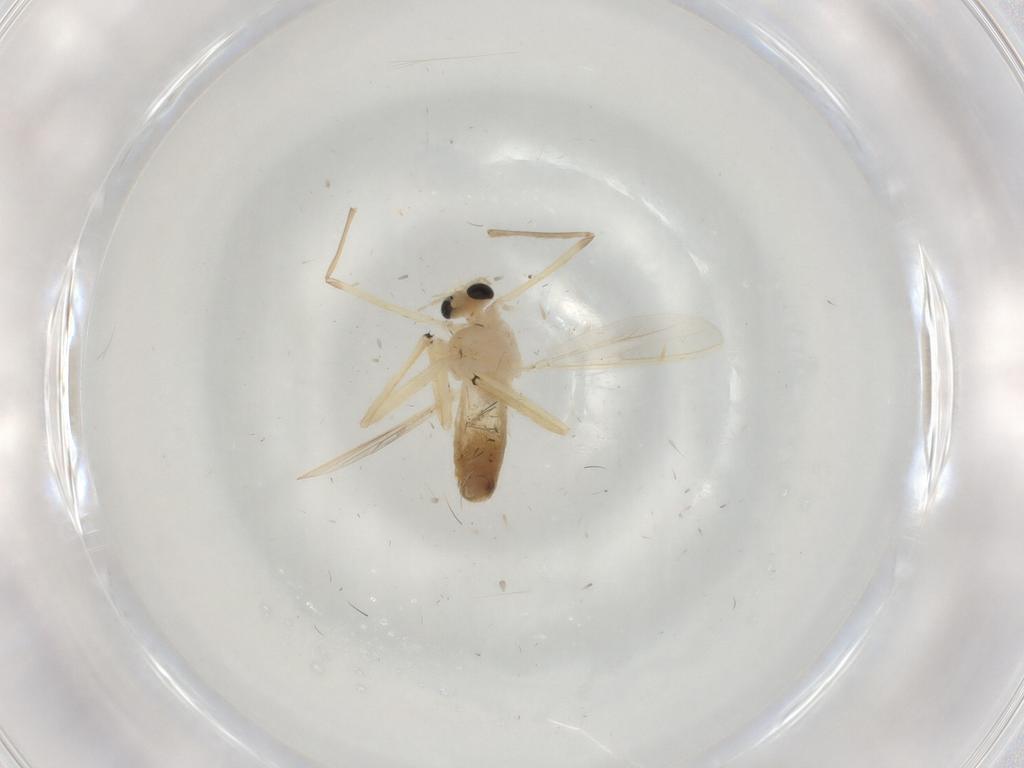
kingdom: Animalia
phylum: Arthropoda
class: Insecta
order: Diptera
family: Chironomidae
